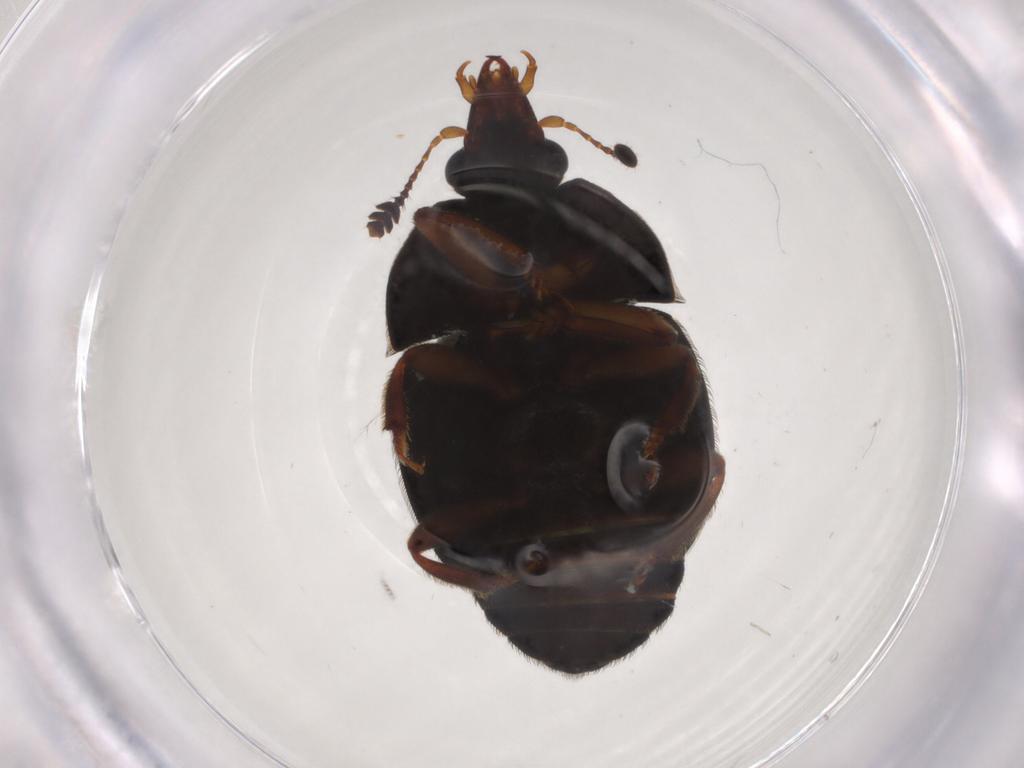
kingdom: Animalia
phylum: Arthropoda
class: Insecta
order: Coleoptera
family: Curculionidae
